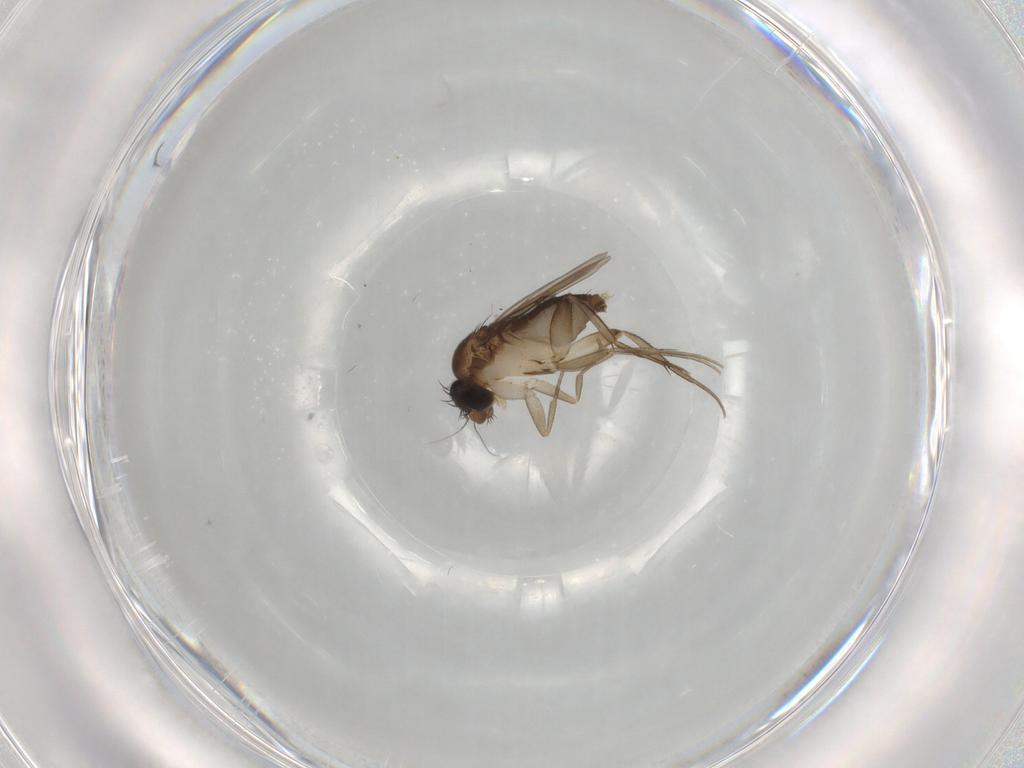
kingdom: Animalia
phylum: Arthropoda
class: Insecta
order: Diptera
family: Phoridae
